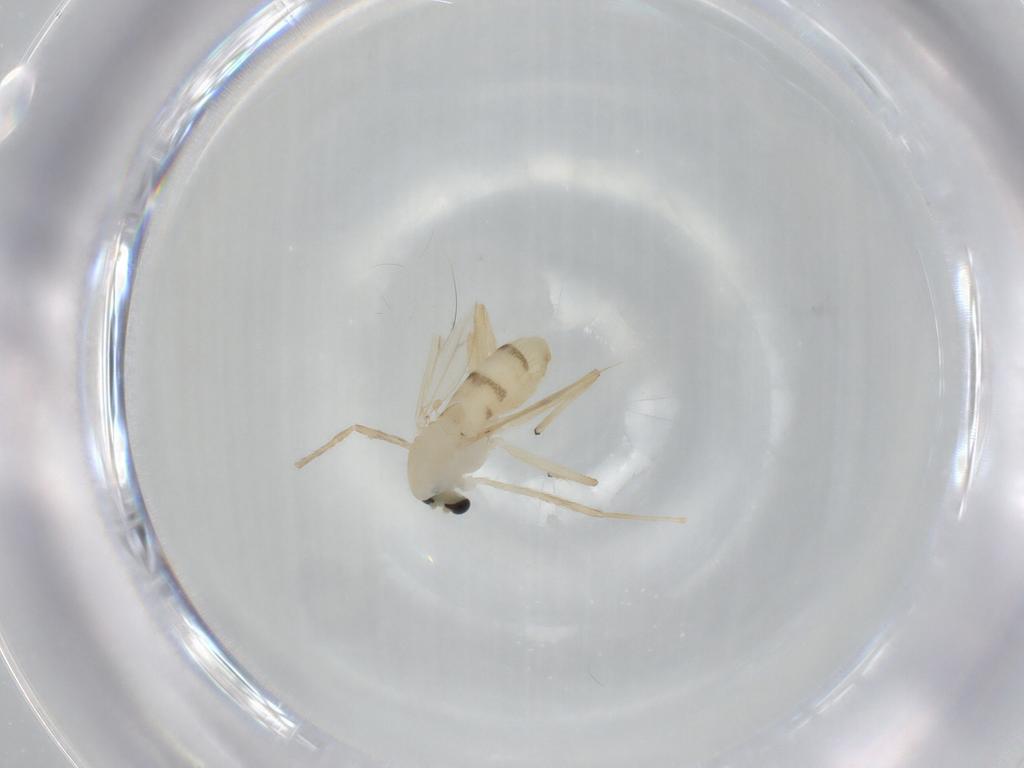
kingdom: Animalia
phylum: Arthropoda
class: Insecta
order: Diptera
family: Chironomidae
